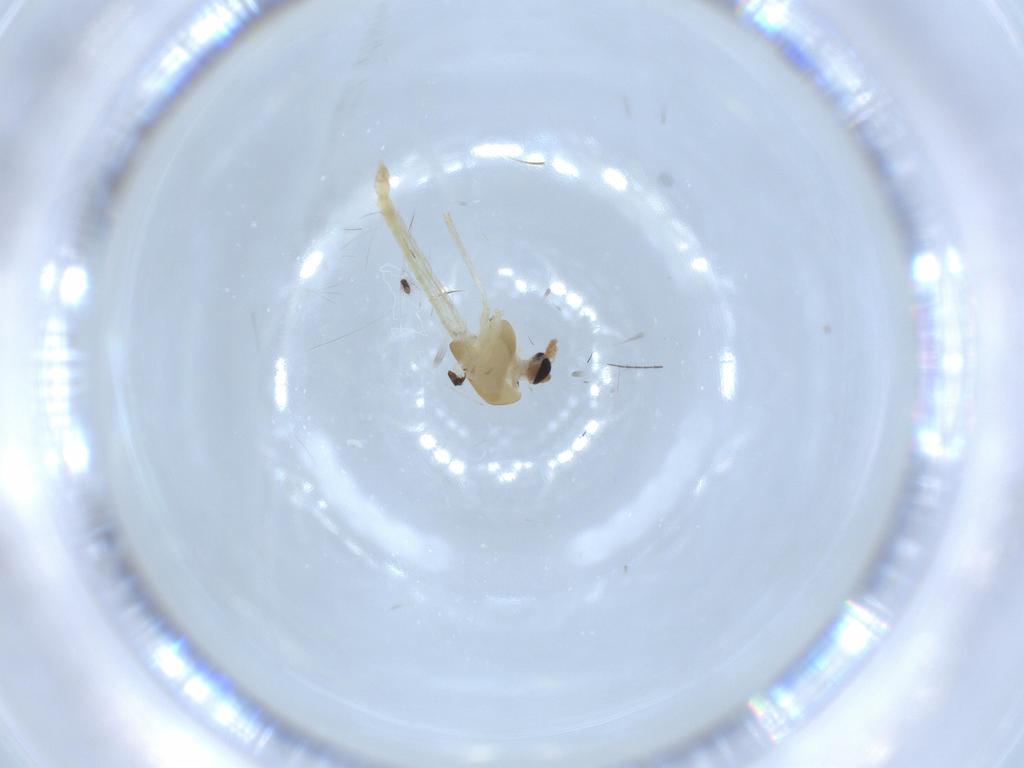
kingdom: Animalia
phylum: Arthropoda
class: Insecta
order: Diptera
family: Chironomidae
